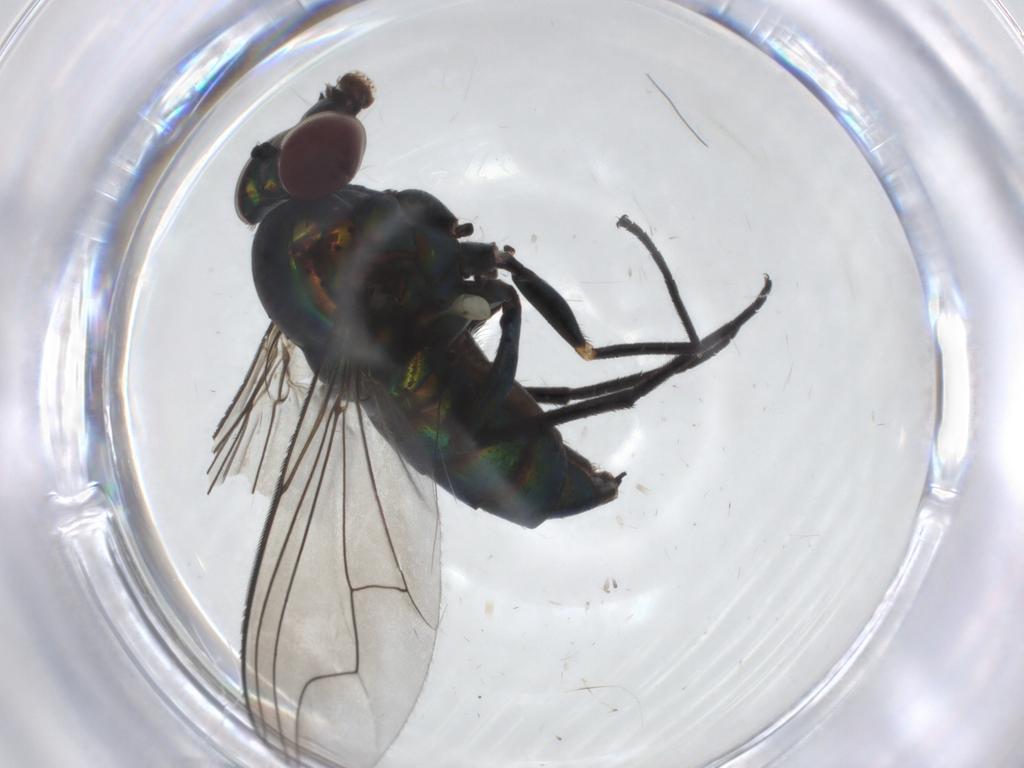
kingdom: Animalia
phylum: Arthropoda
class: Insecta
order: Diptera
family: Dolichopodidae
